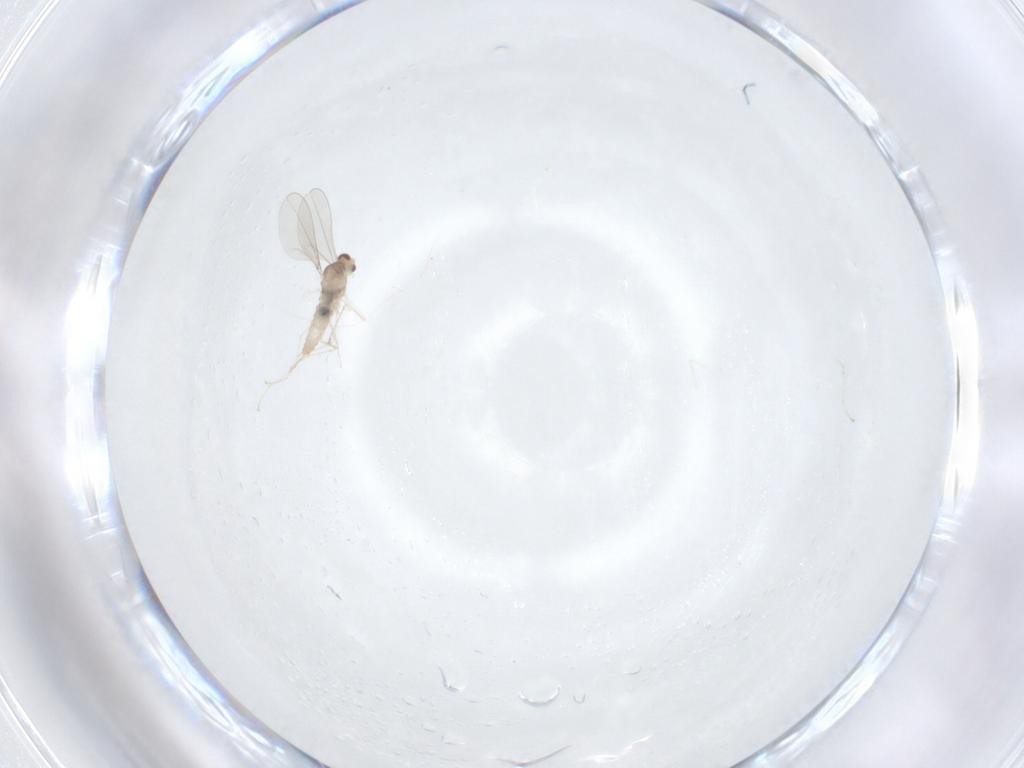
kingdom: Animalia
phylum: Arthropoda
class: Insecta
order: Diptera
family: Cecidomyiidae
